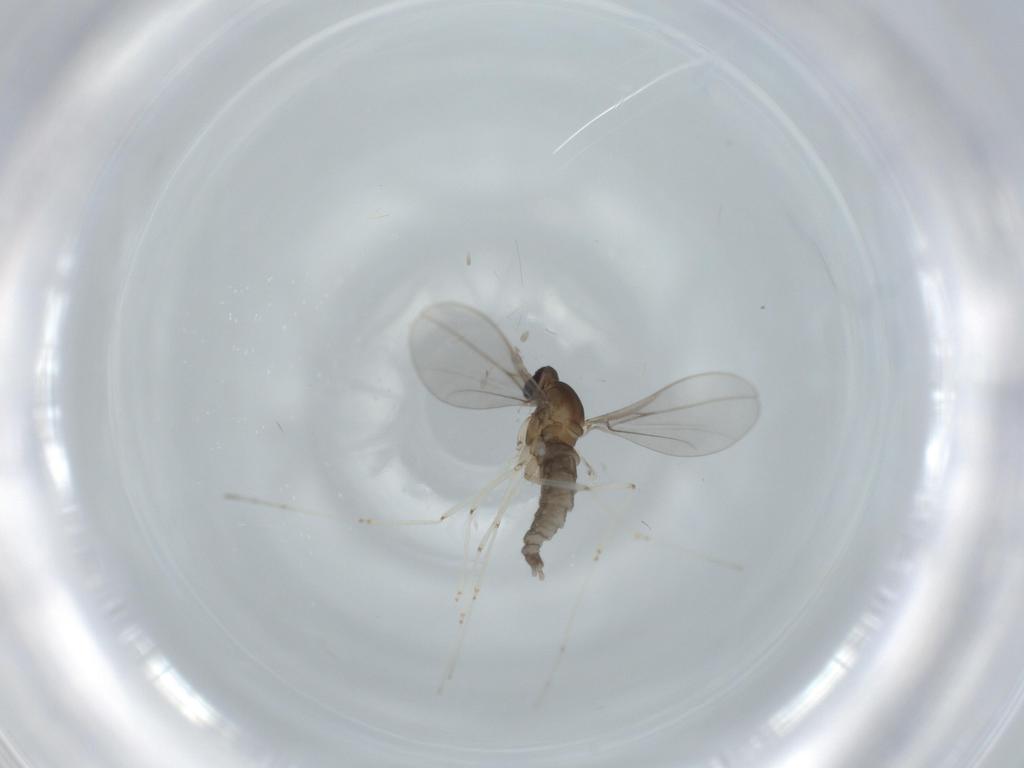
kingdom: Animalia
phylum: Arthropoda
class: Insecta
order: Diptera
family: Cecidomyiidae
